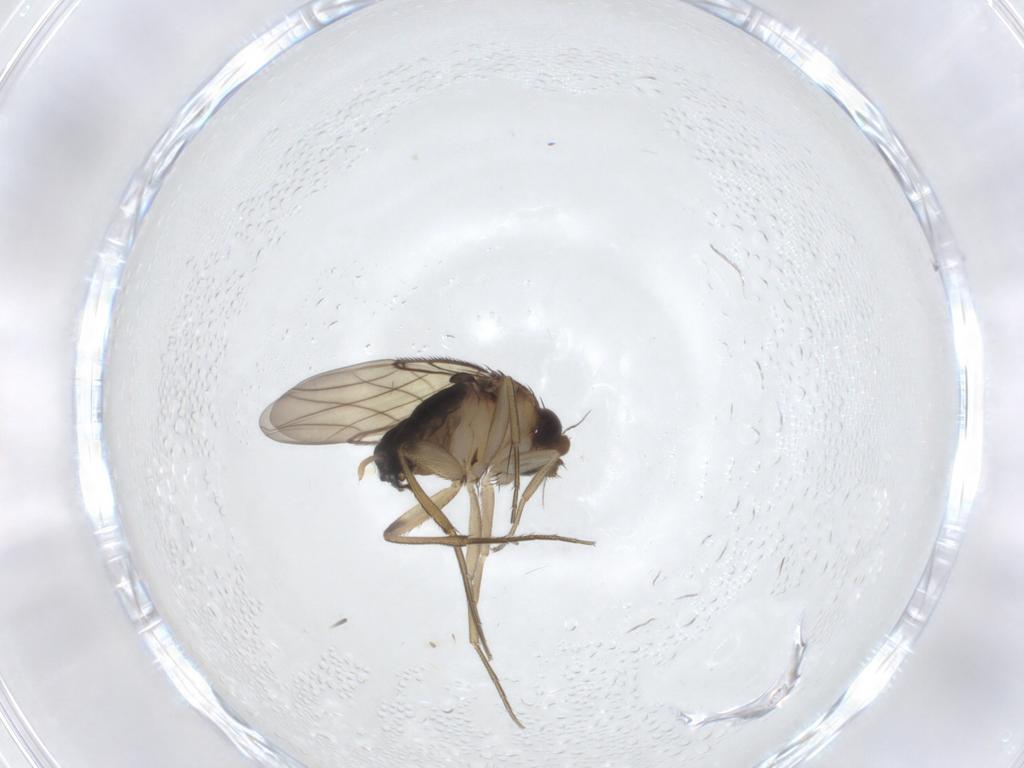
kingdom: Animalia
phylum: Arthropoda
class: Insecta
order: Diptera
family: Phoridae
